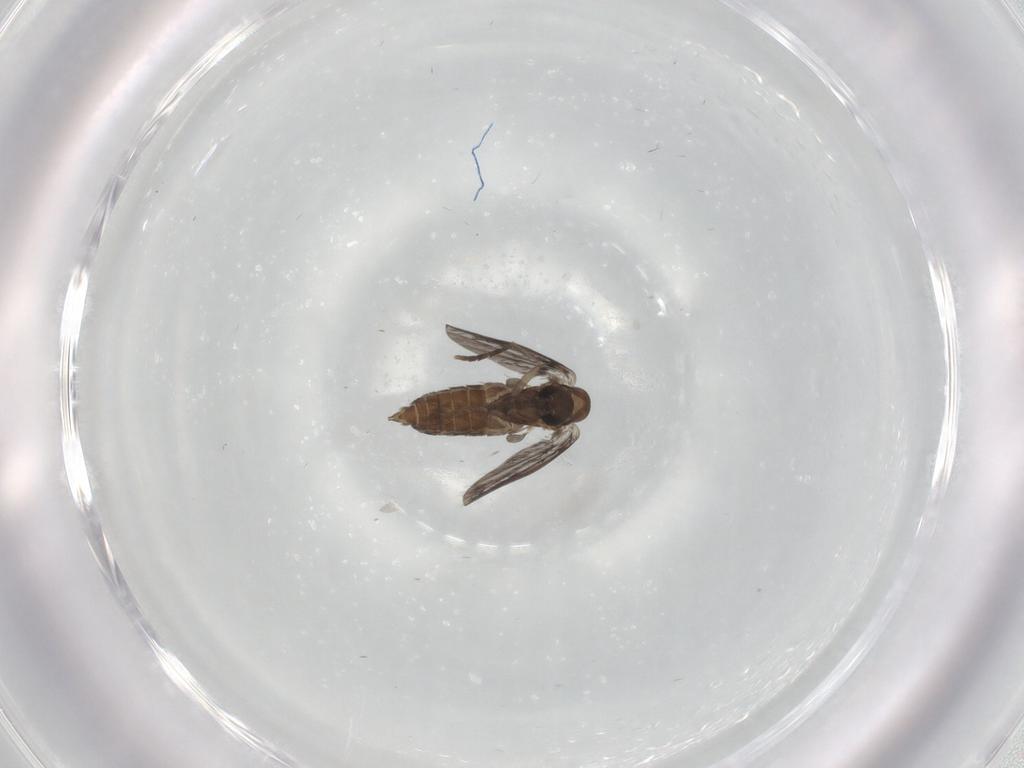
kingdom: Animalia
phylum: Arthropoda
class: Insecta
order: Diptera
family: Chironomidae
